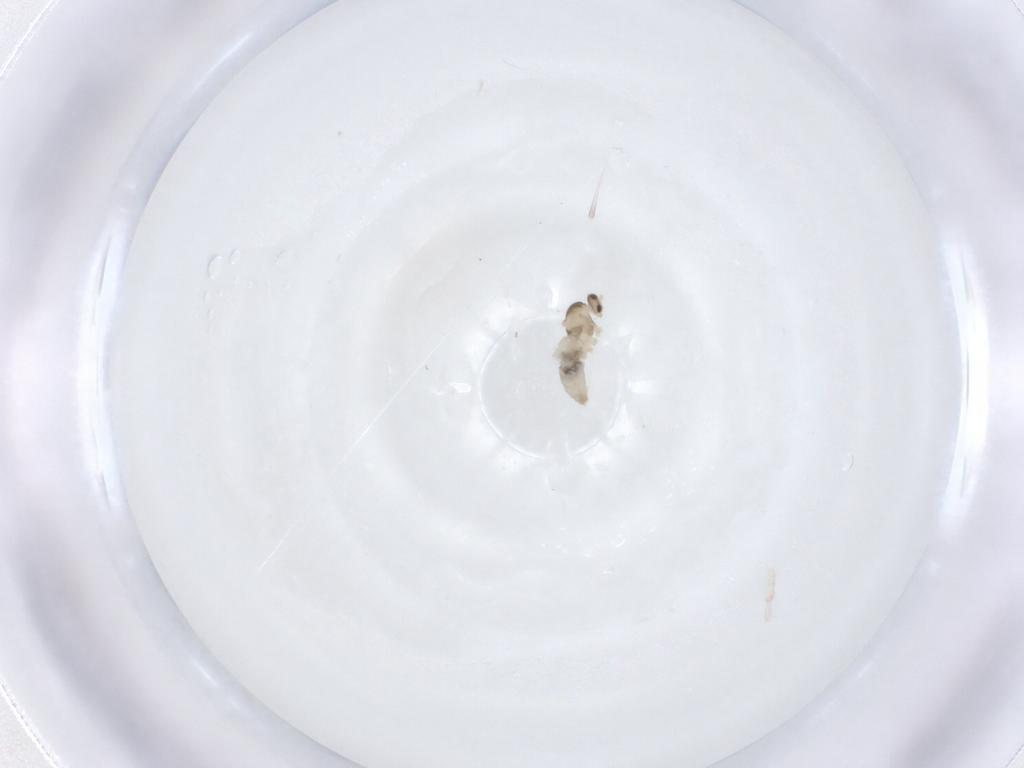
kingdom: Animalia
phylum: Arthropoda
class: Insecta
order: Diptera
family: Cecidomyiidae
